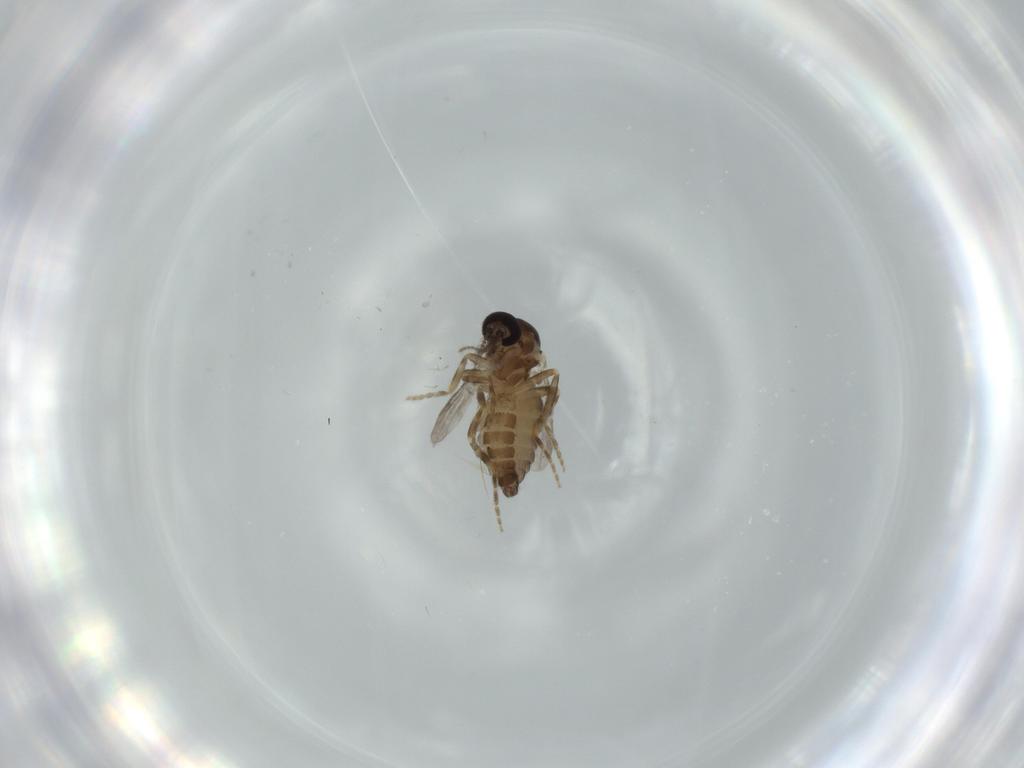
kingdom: Animalia
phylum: Arthropoda
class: Insecta
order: Diptera
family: Ceratopogonidae
